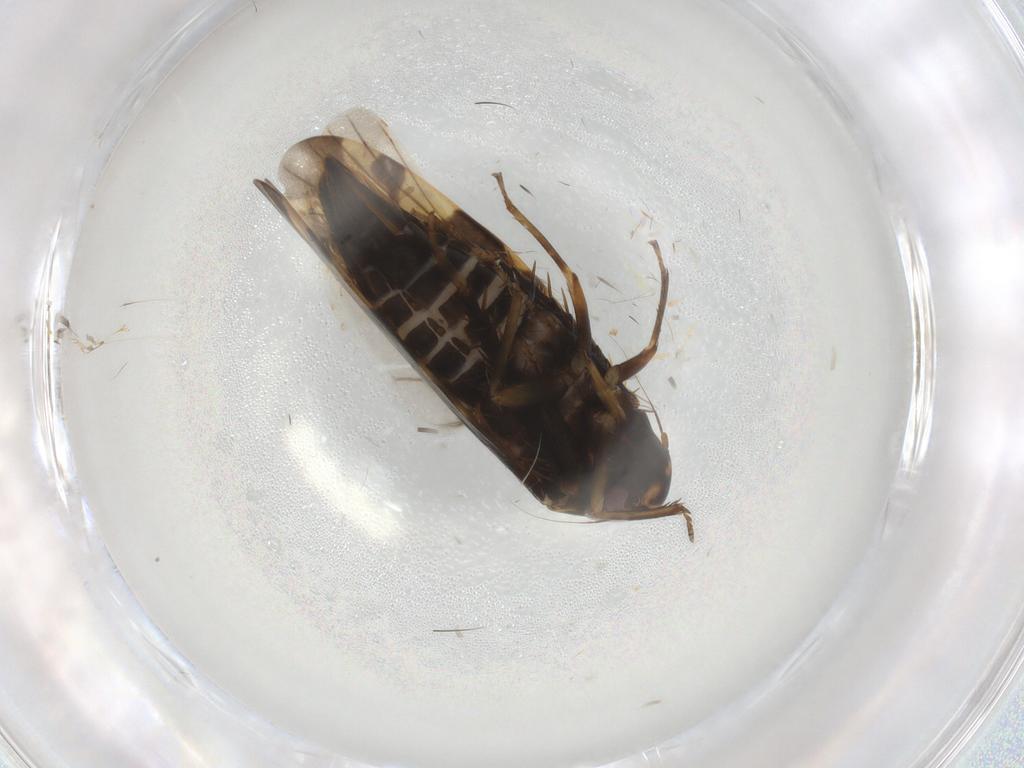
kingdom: Animalia
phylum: Arthropoda
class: Insecta
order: Hemiptera
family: Cicadellidae
